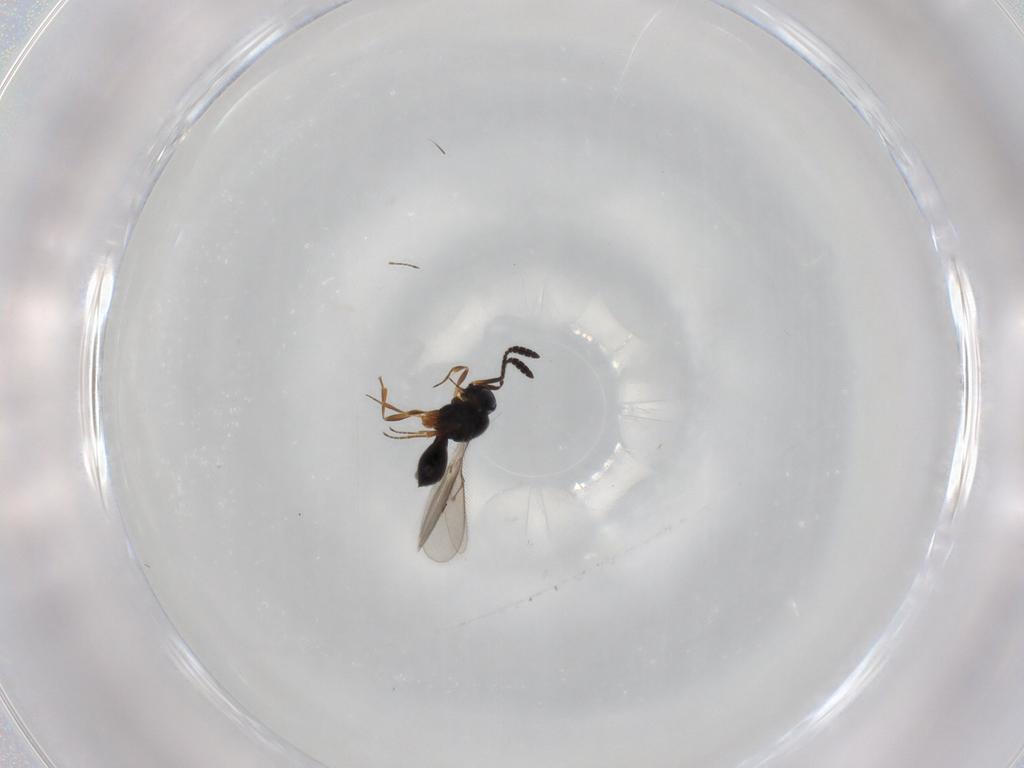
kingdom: Animalia
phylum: Arthropoda
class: Insecta
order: Hymenoptera
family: Scelionidae
